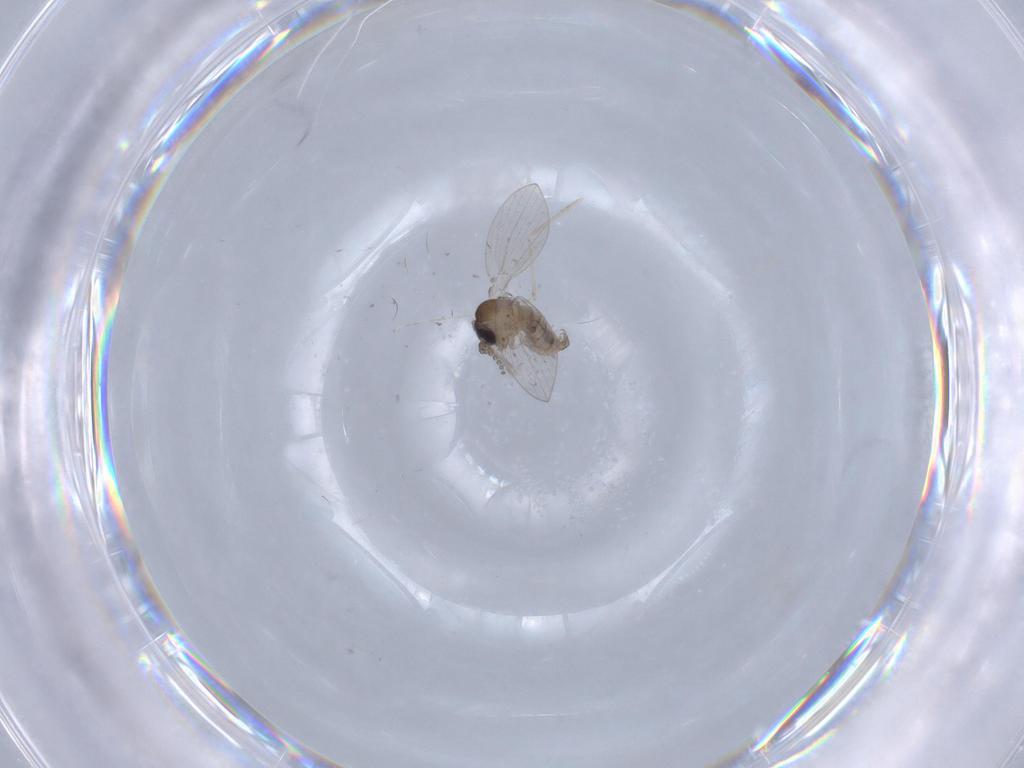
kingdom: Animalia
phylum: Arthropoda
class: Insecta
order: Diptera
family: Psychodidae
